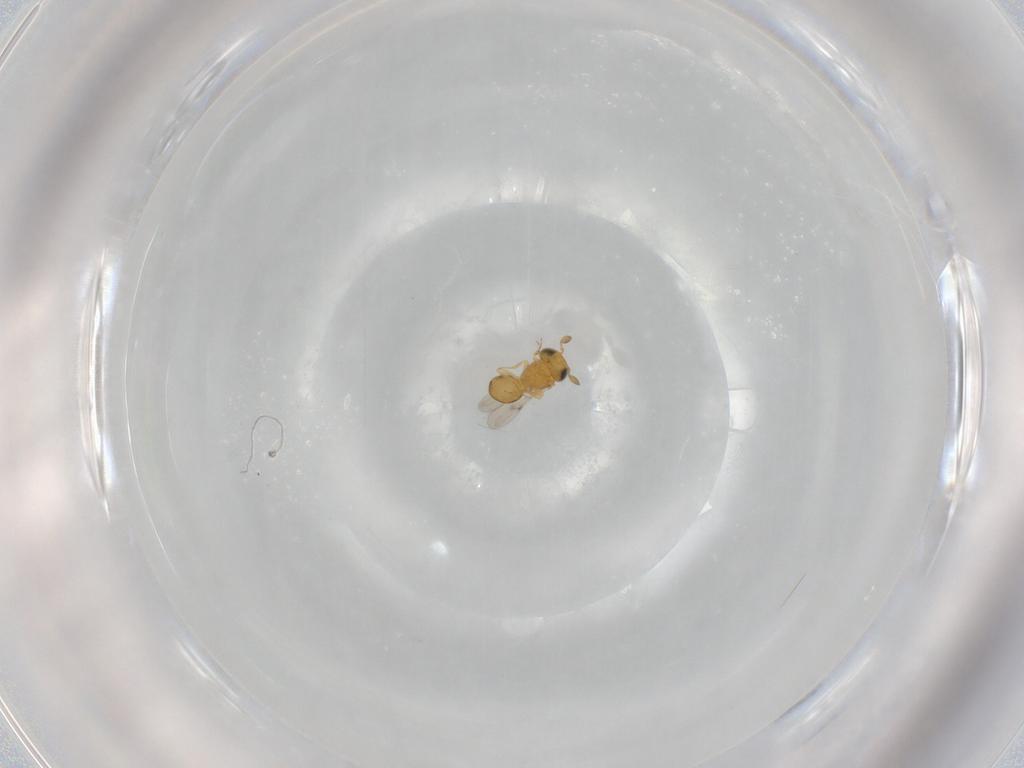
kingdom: Animalia
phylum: Arthropoda
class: Insecta
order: Hymenoptera
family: Scelionidae
